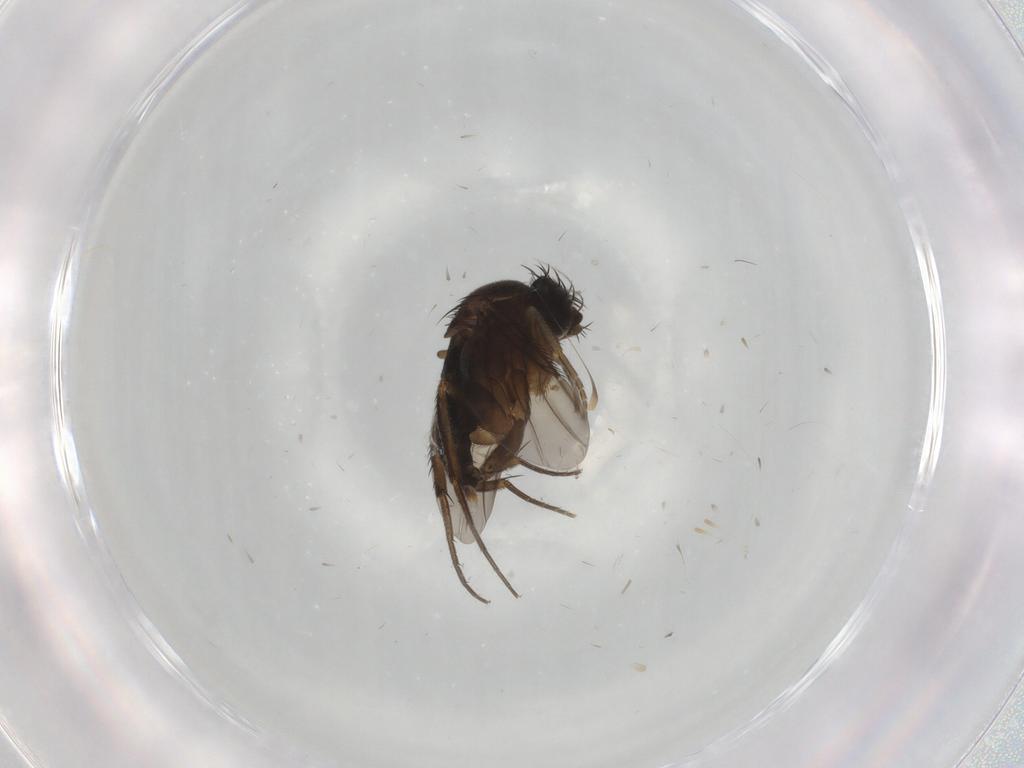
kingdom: Animalia
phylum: Arthropoda
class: Insecta
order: Diptera
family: Phoridae
